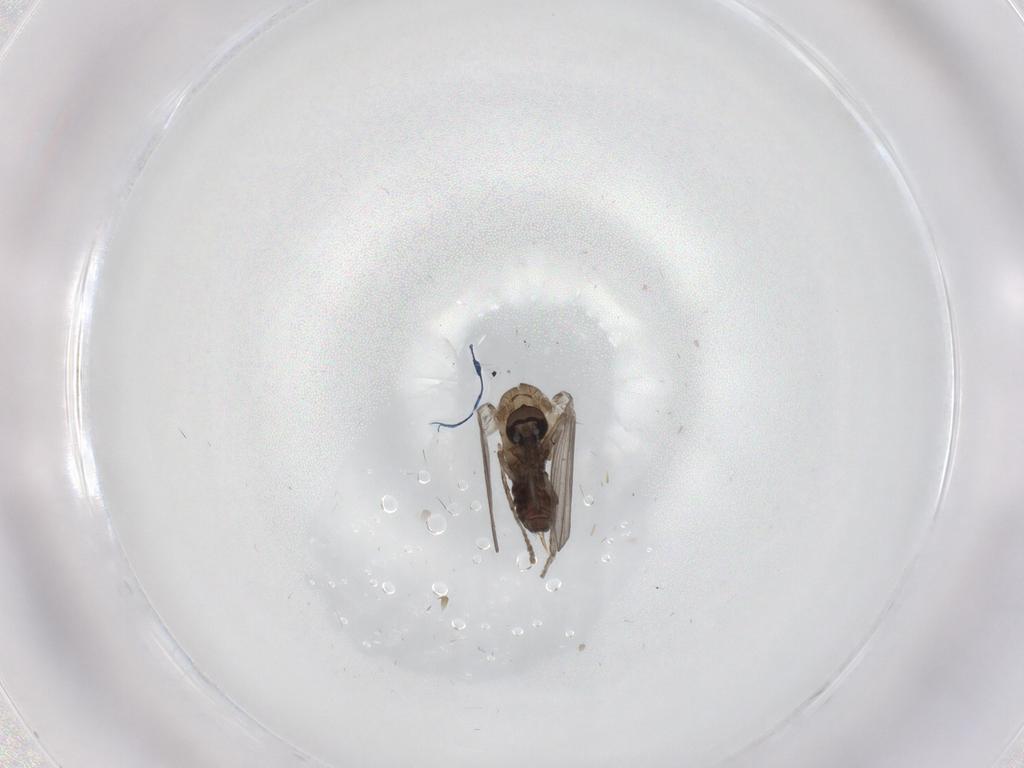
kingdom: Animalia
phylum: Arthropoda
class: Insecta
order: Diptera
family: Psychodidae
